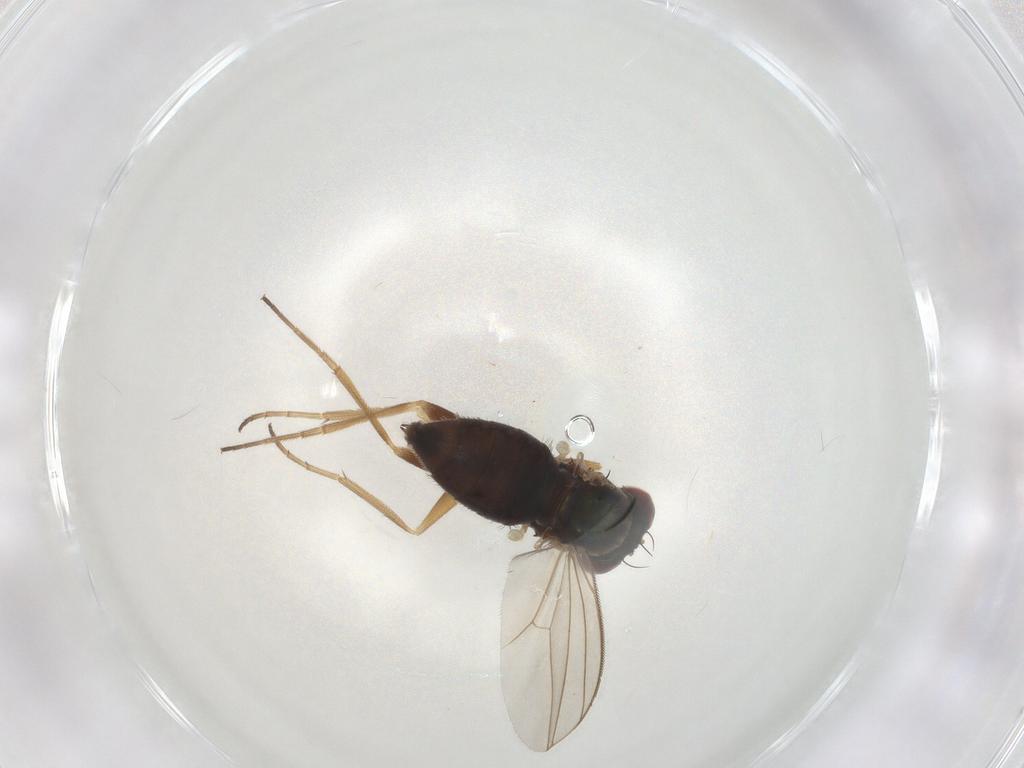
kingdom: Animalia
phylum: Arthropoda
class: Insecta
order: Diptera
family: Dolichopodidae
